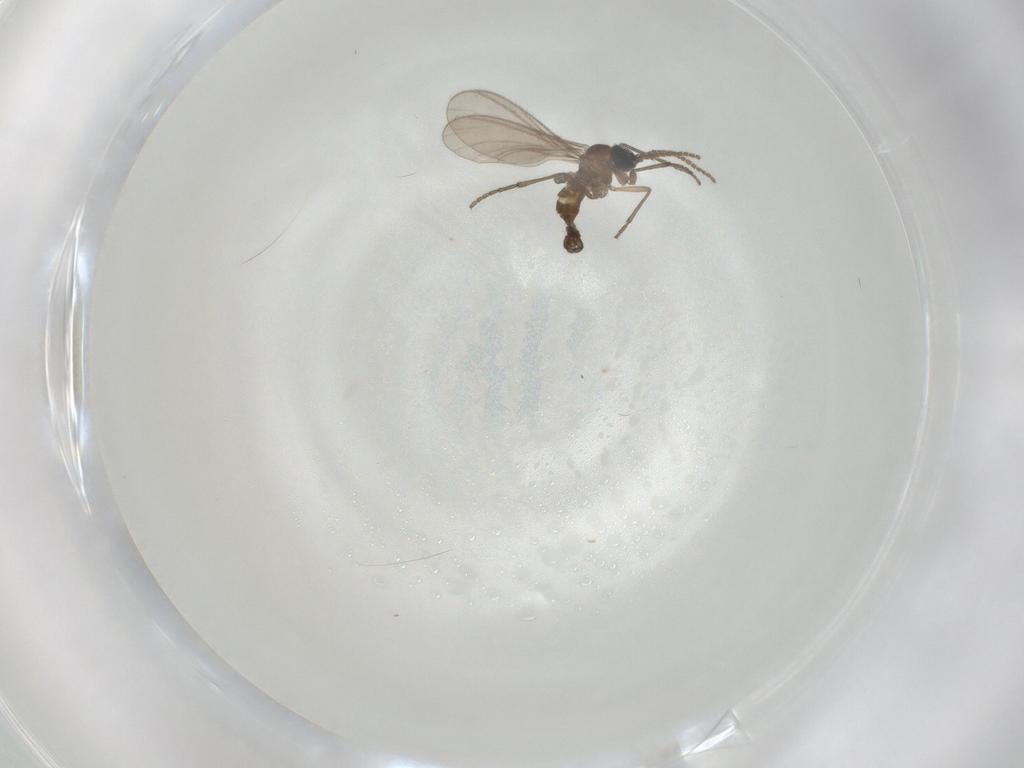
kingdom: Animalia
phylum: Arthropoda
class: Insecta
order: Diptera
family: Sciaridae
